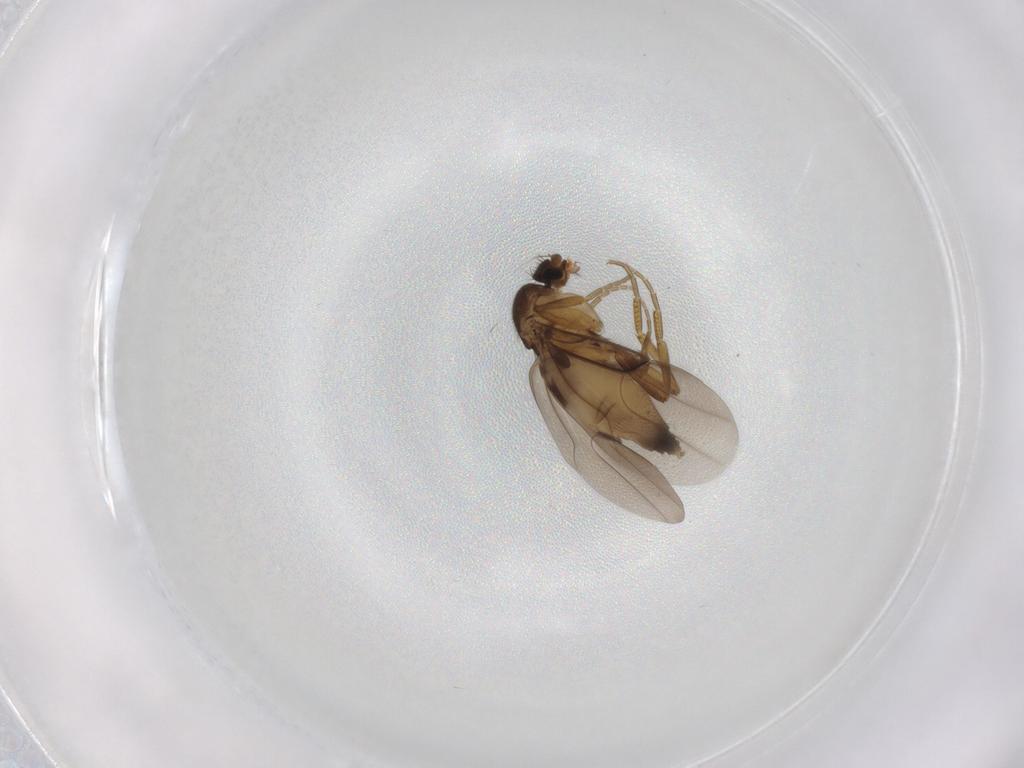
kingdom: Animalia
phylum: Arthropoda
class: Insecta
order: Diptera
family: Phoridae
